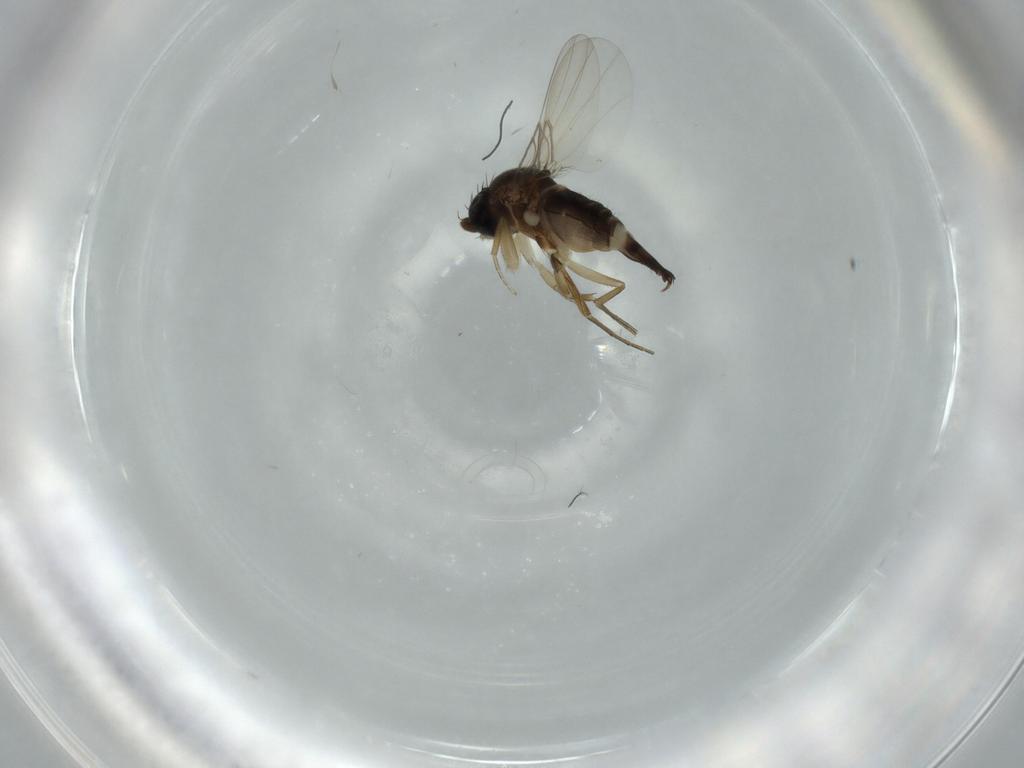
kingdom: Animalia
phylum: Arthropoda
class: Insecta
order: Diptera
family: Phoridae
